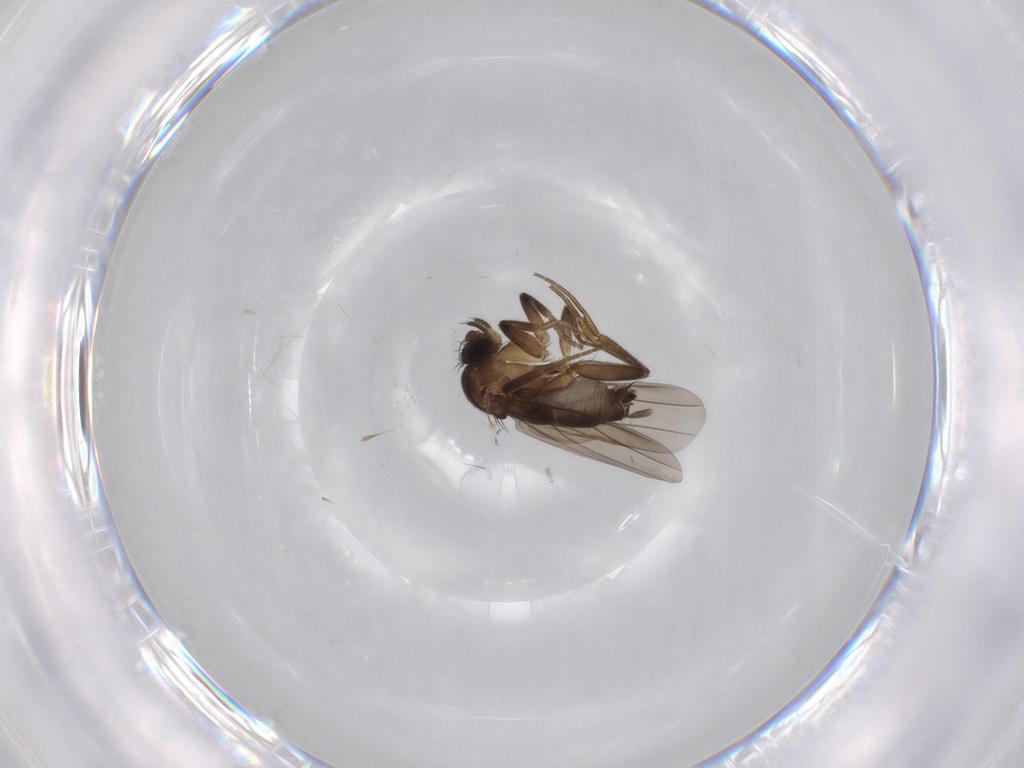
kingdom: Animalia
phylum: Arthropoda
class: Insecta
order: Diptera
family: Phoridae
